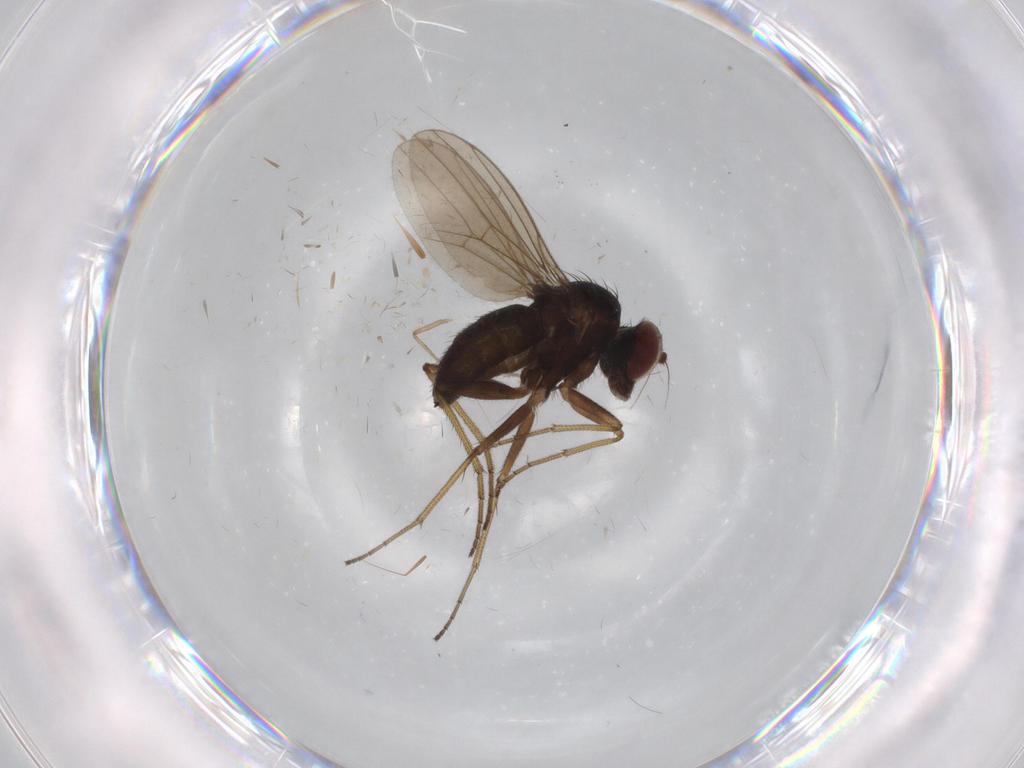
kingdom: Animalia
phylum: Arthropoda
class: Insecta
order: Diptera
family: Dolichopodidae
